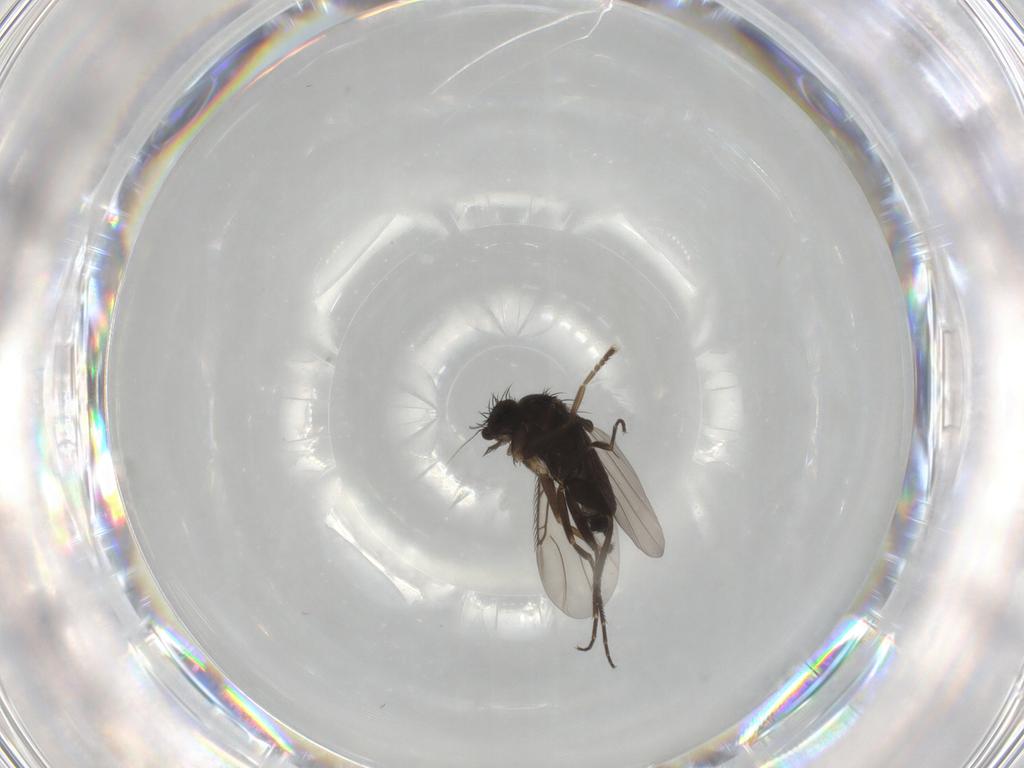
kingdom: Animalia
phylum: Arthropoda
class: Insecta
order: Diptera
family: Phoridae
